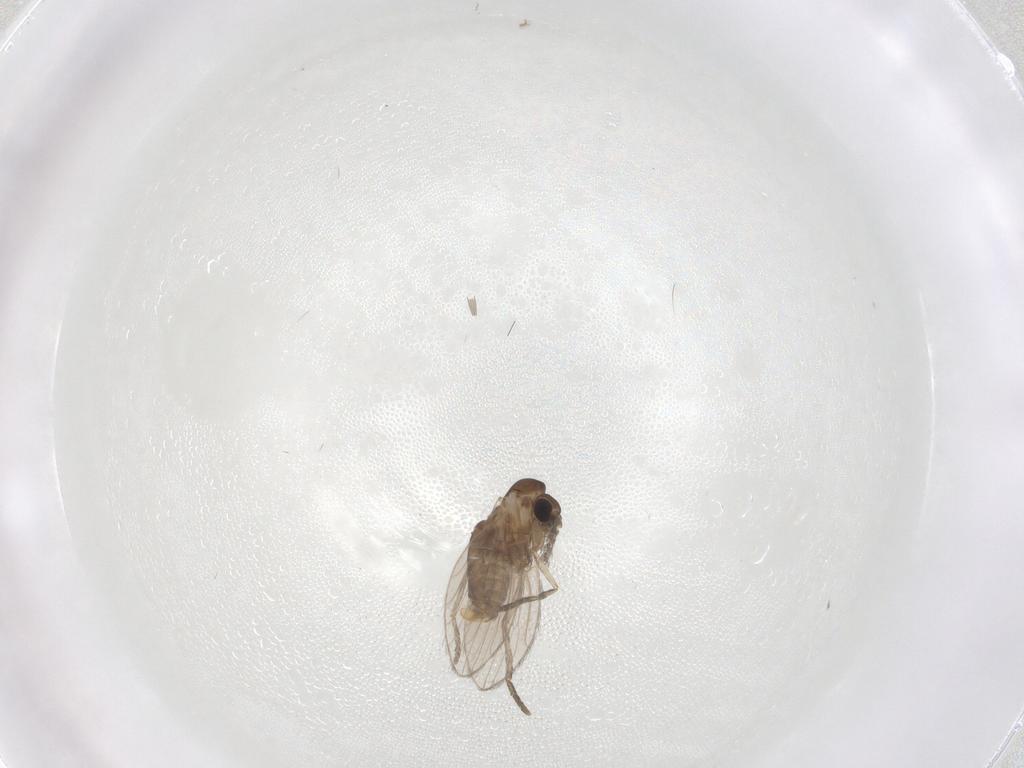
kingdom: Animalia
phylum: Arthropoda
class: Insecta
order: Diptera
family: Psychodidae
